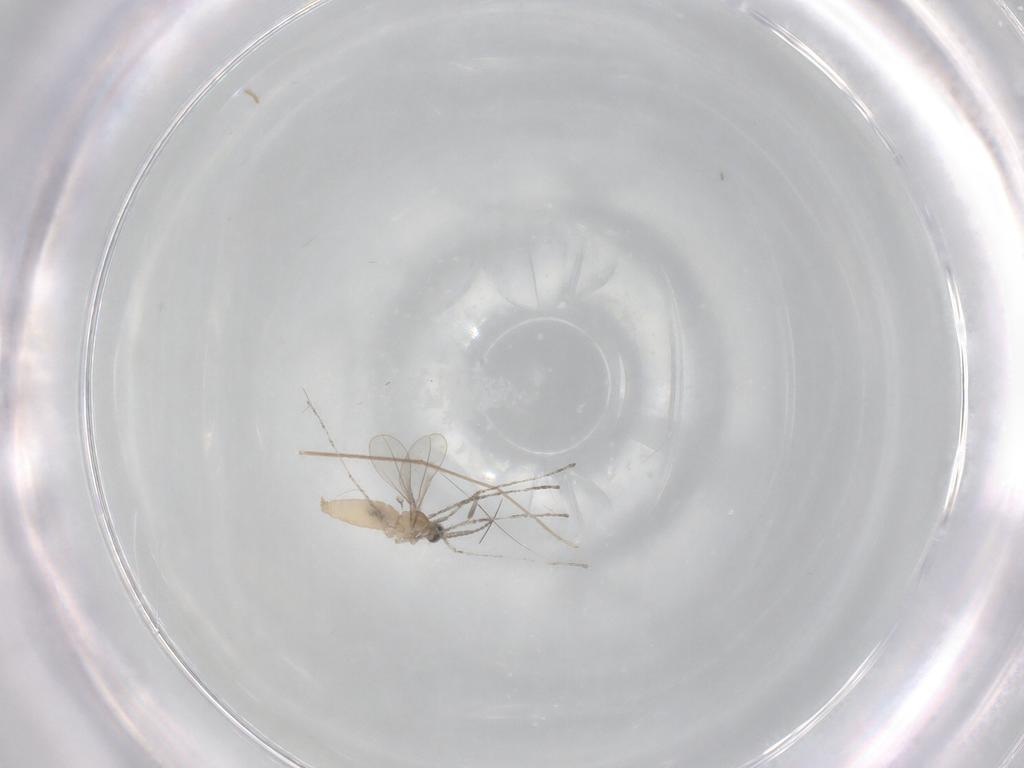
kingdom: Animalia
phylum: Arthropoda
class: Insecta
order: Diptera
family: Cecidomyiidae
